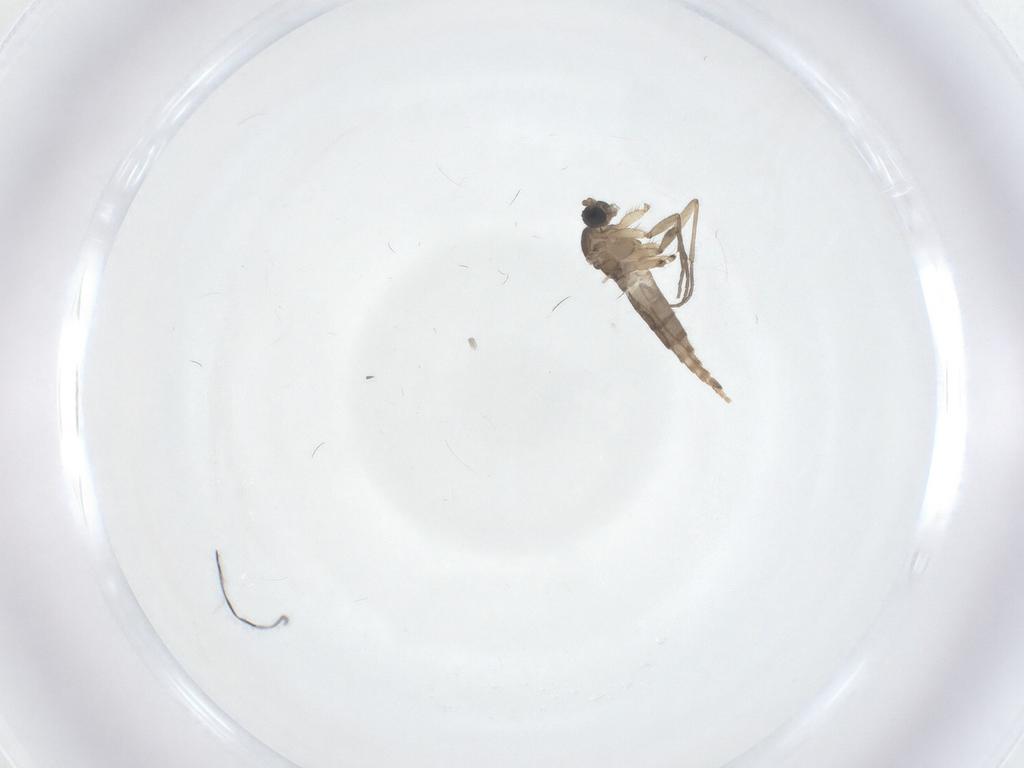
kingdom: Animalia
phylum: Arthropoda
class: Insecta
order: Diptera
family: Sciaridae
